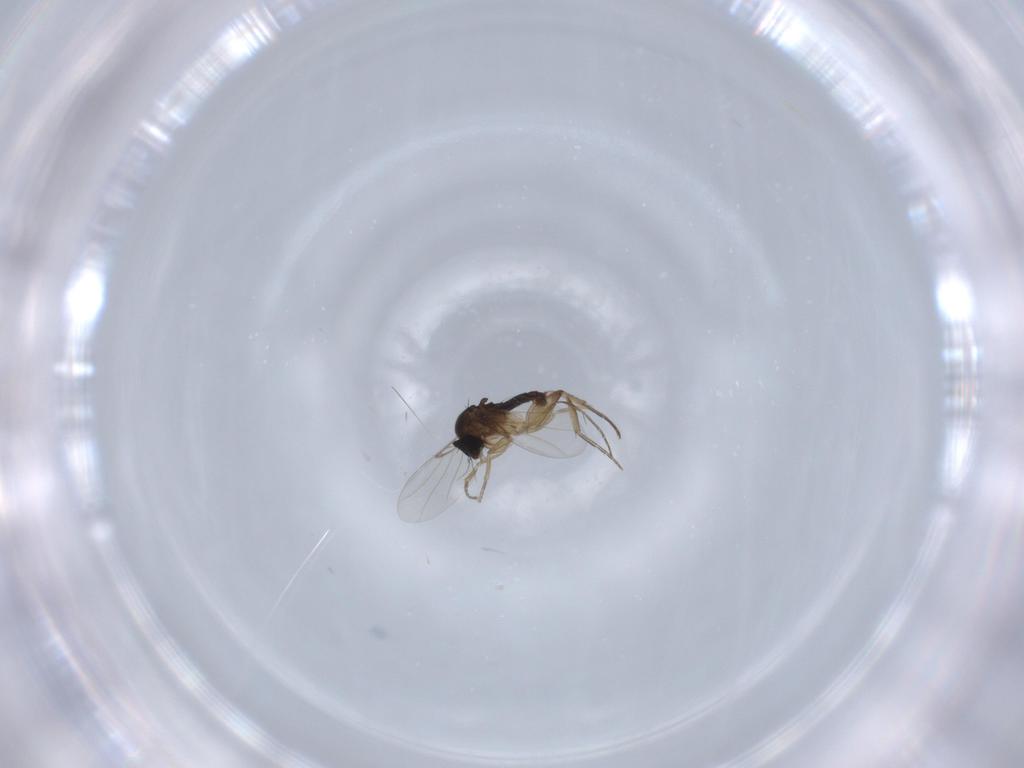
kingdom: Animalia
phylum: Arthropoda
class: Insecta
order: Diptera
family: Phoridae
